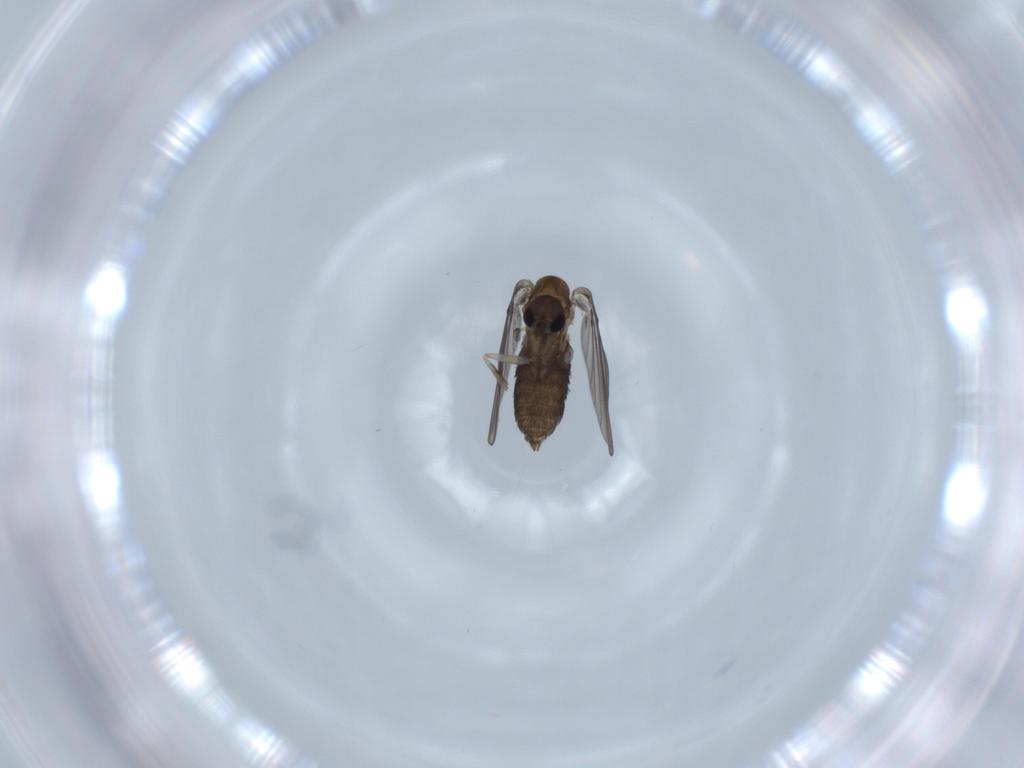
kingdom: Animalia
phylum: Arthropoda
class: Insecta
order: Diptera
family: Psychodidae
